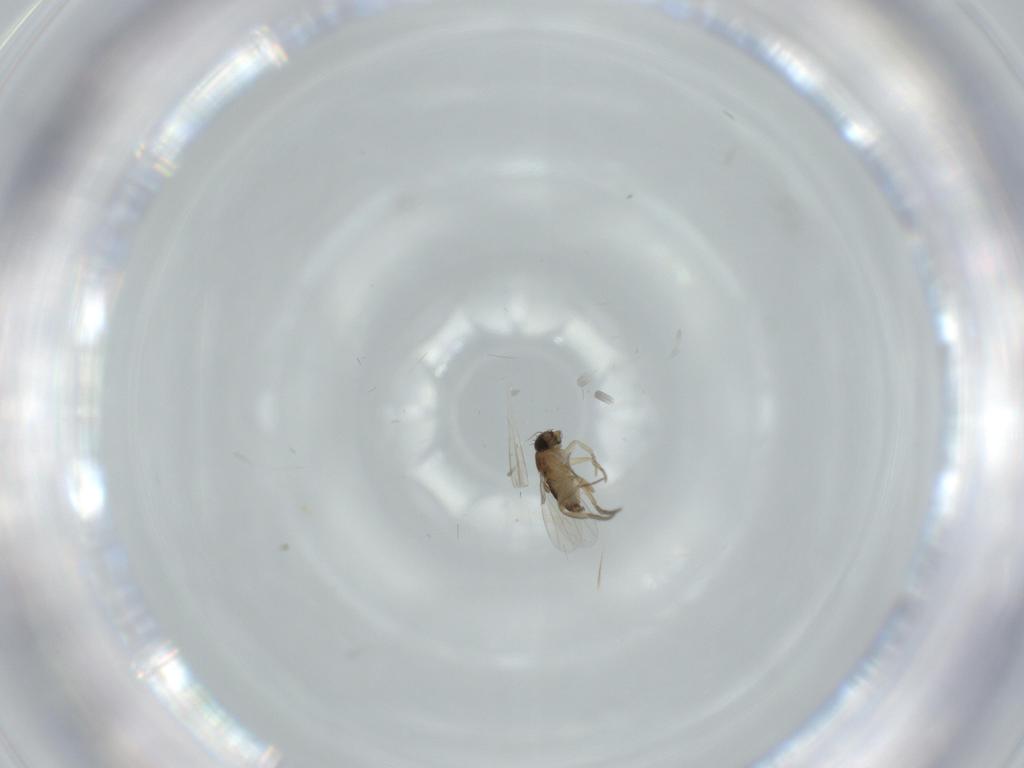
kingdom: Animalia
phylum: Arthropoda
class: Insecta
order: Diptera
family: Phoridae
